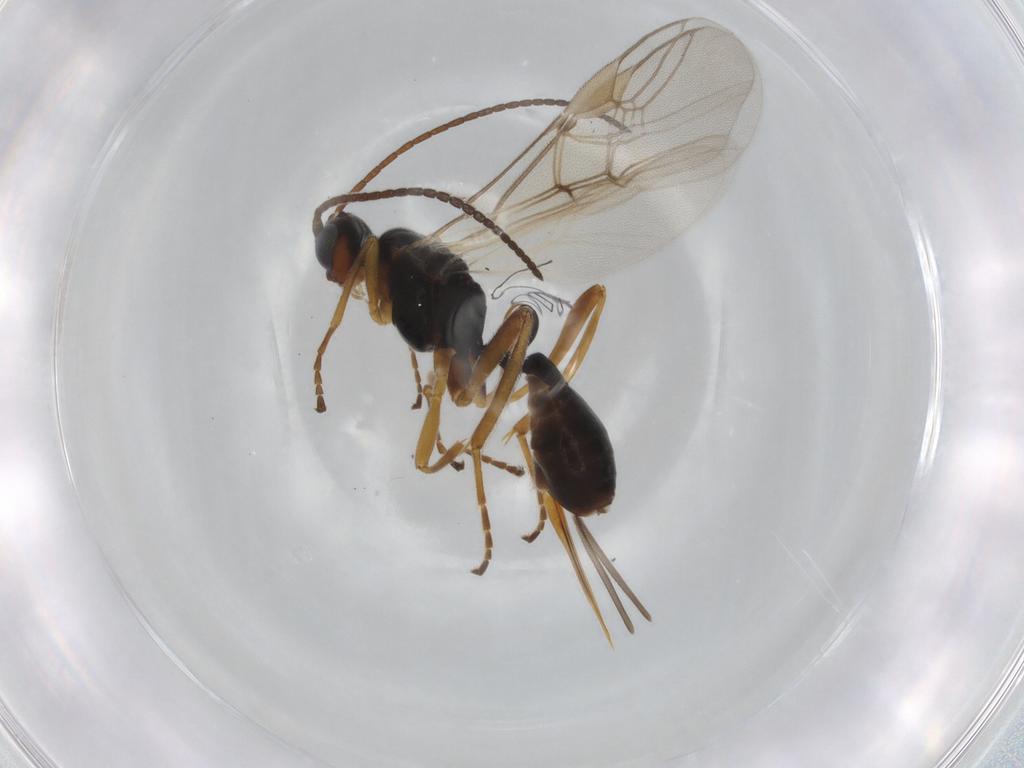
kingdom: Animalia
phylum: Arthropoda
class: Insecta
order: Hymenoptera
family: Braconidae
